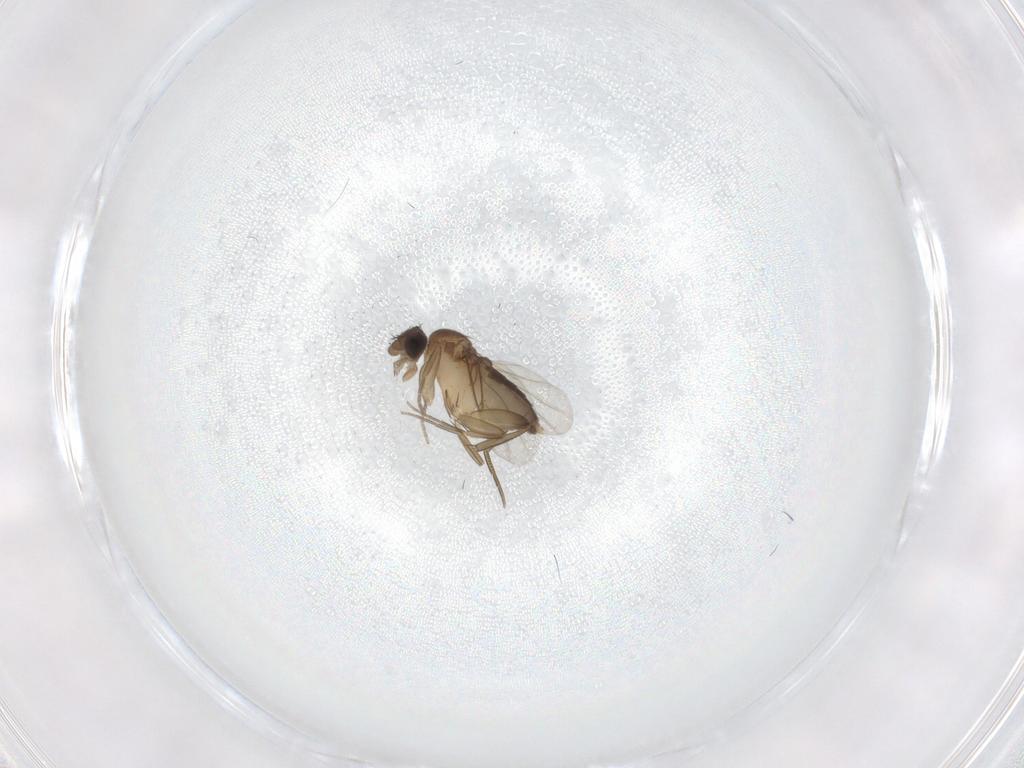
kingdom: Animalia
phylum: Arthropoda
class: Insecta
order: Diptera
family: Phoridae
